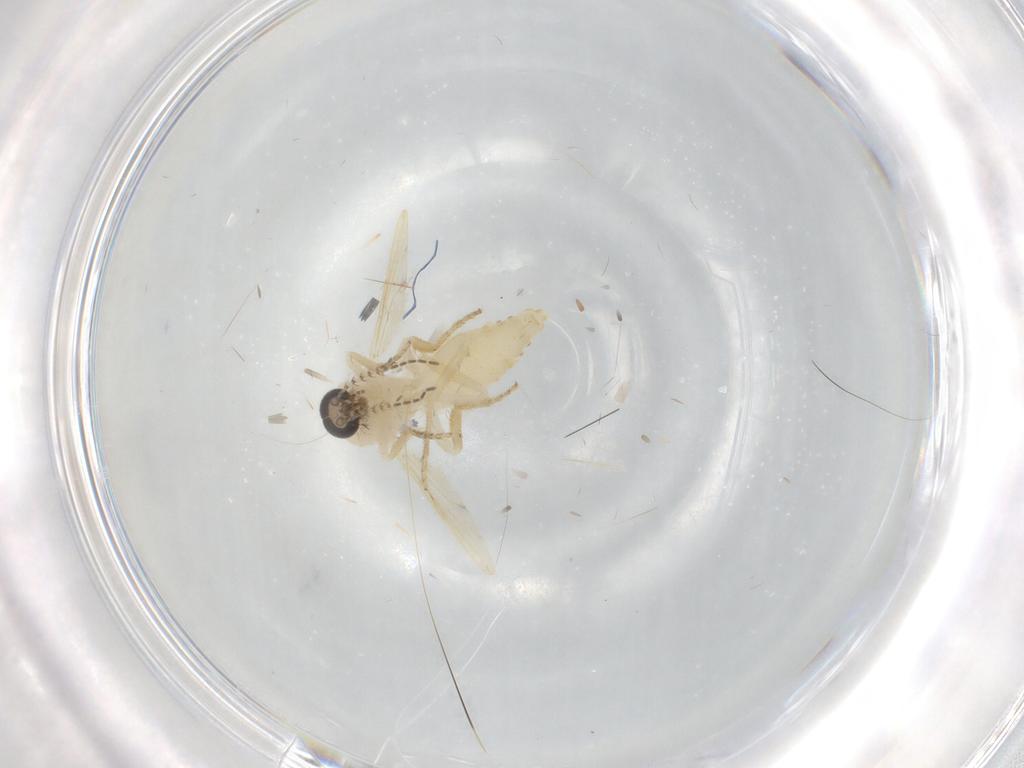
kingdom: Animalia
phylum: Arthropoda
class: Insecta
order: Diptera
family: Ceratopogonidae
